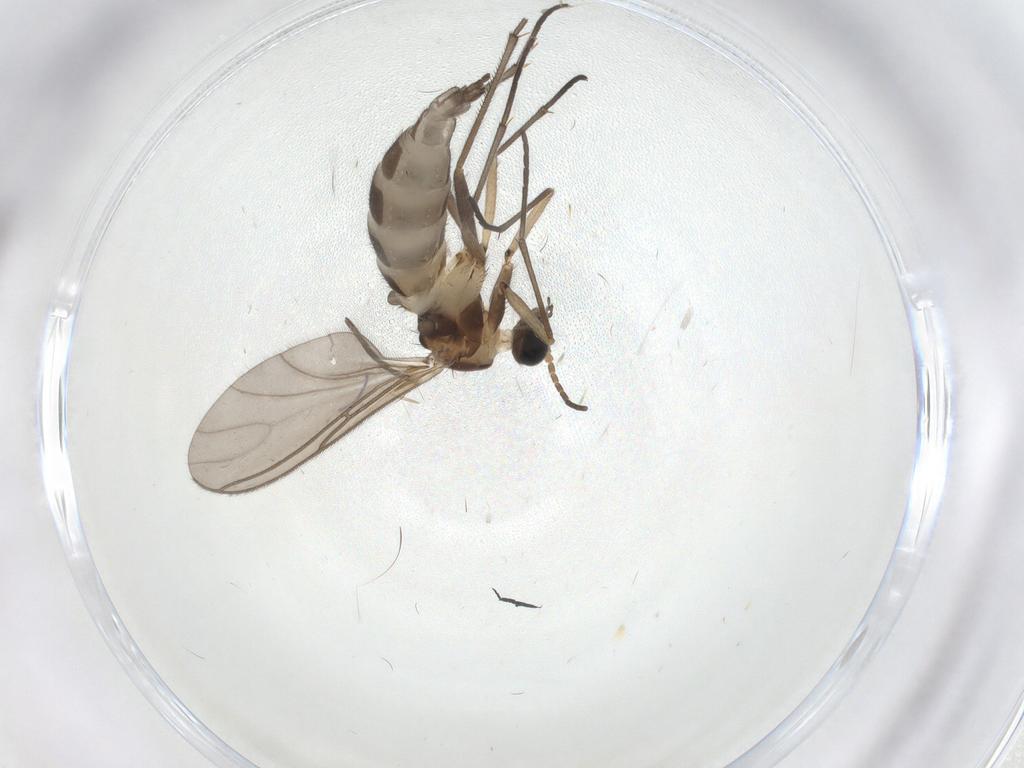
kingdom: Animalia
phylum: Arthropoda
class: Insecta
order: Diptera
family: Sciaridae
